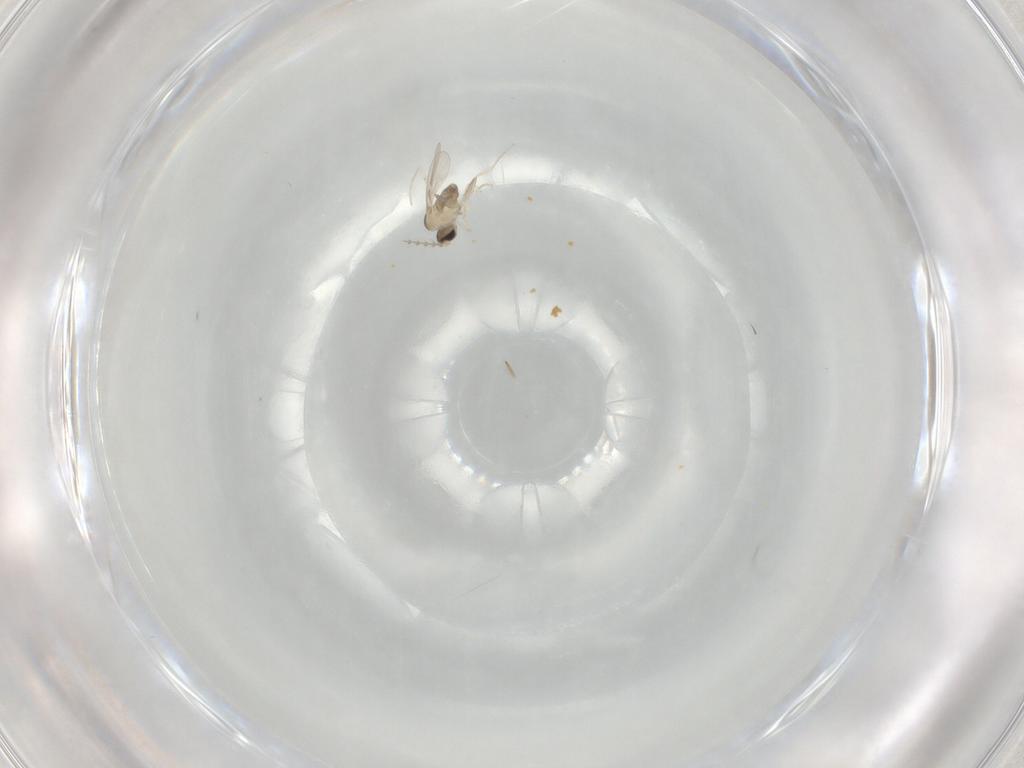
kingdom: Animalia
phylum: Arthropoda
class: Insecta
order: Diptera
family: Cecidomyiidae
